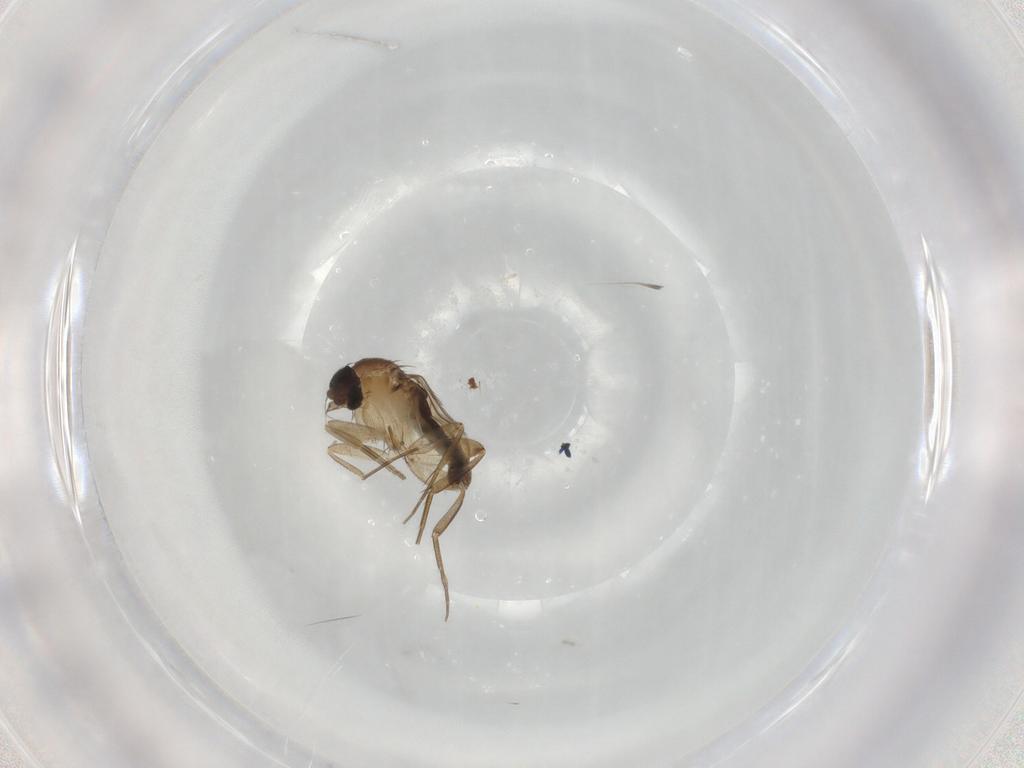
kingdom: Animalia
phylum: Arthropoda
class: Insecta
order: Diptera
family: Phoridae
